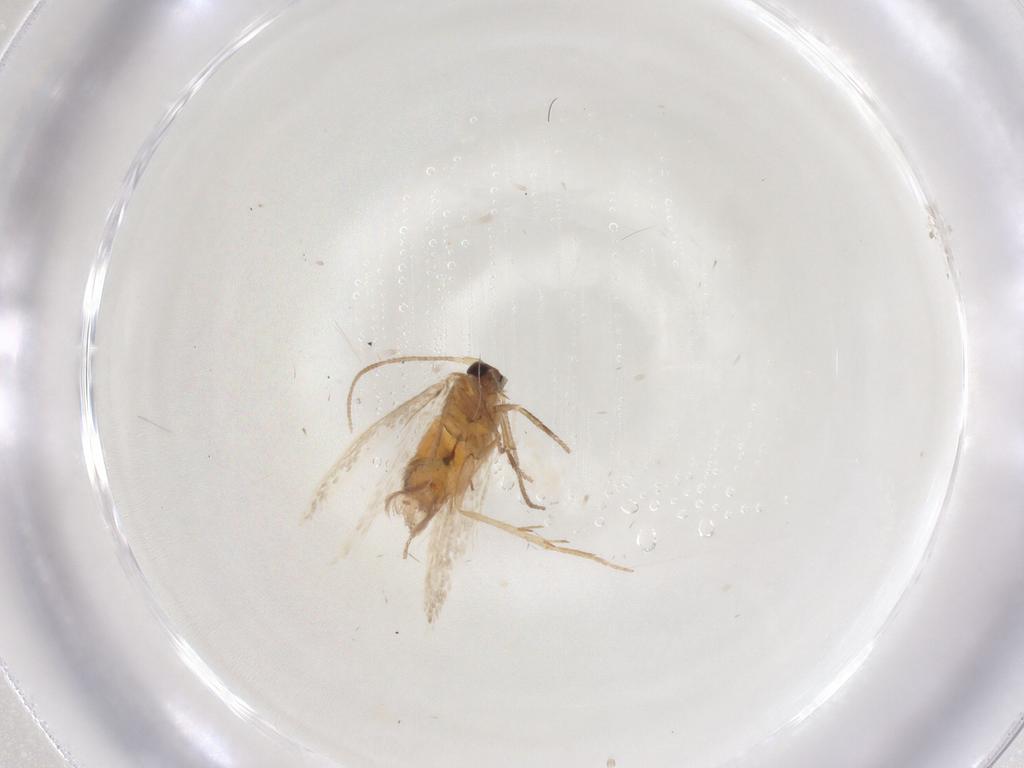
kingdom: Animalia
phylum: Arthropoda
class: Insecta
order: Lepidoptera
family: Nepticulidae
